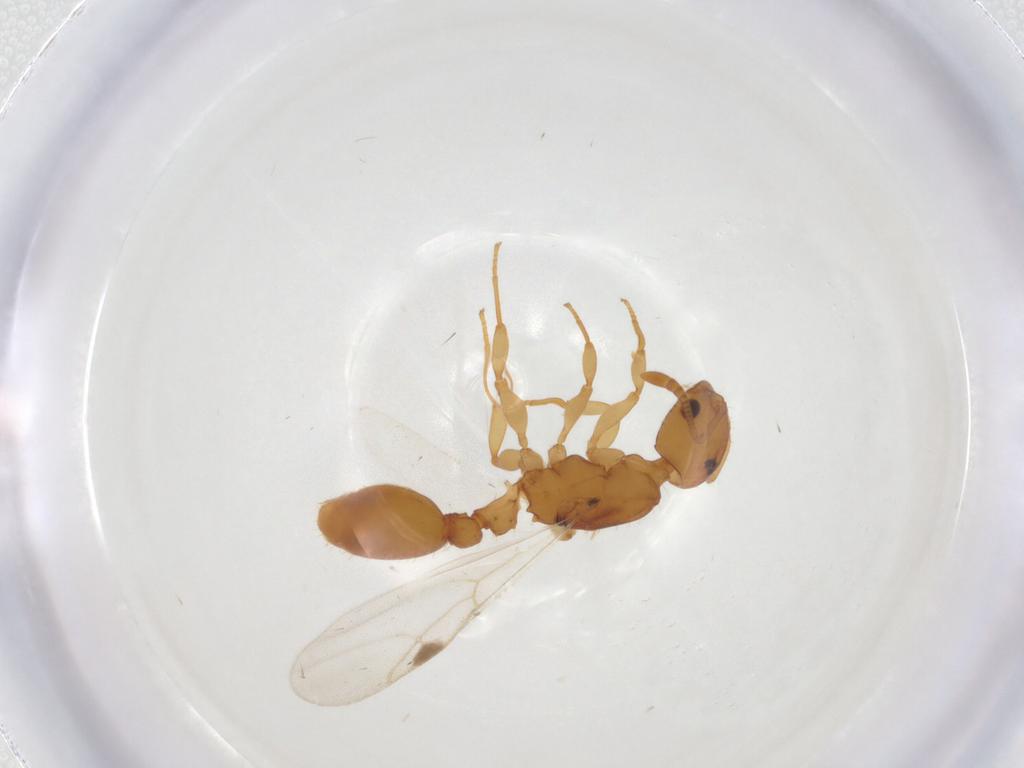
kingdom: Animalia
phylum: Arthropoda
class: Insecta
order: Hymenoptera
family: Formicidae
